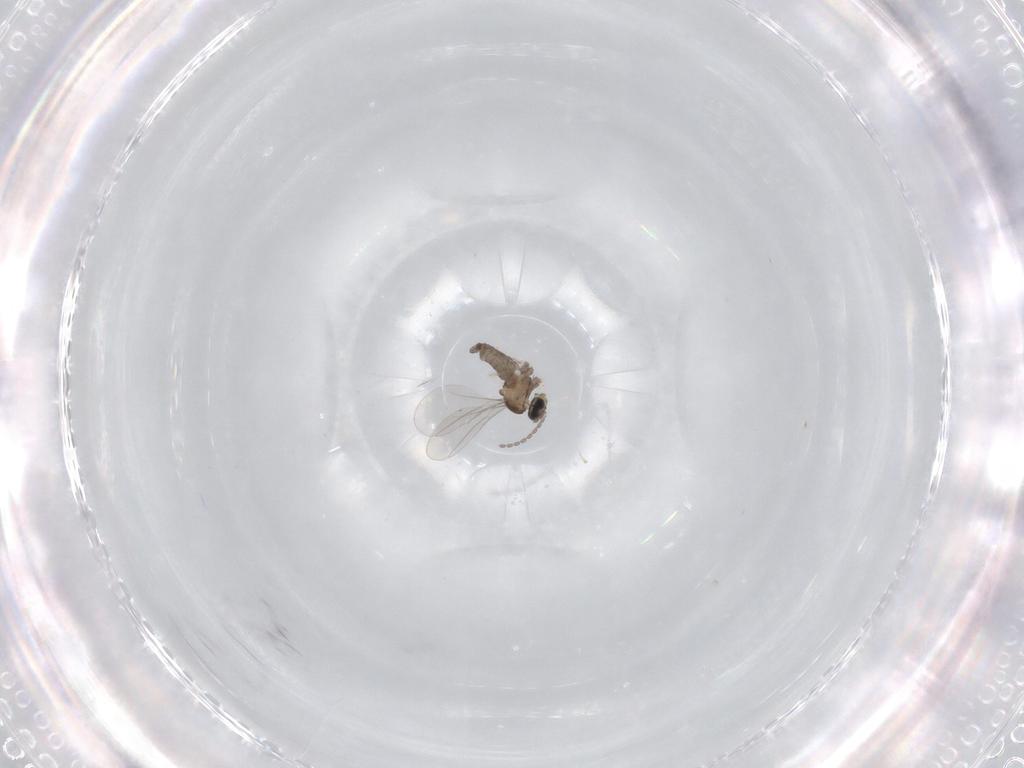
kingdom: Animalia
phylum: Arthropoda
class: Insecta
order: Diptera
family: Cecidomyiidae
